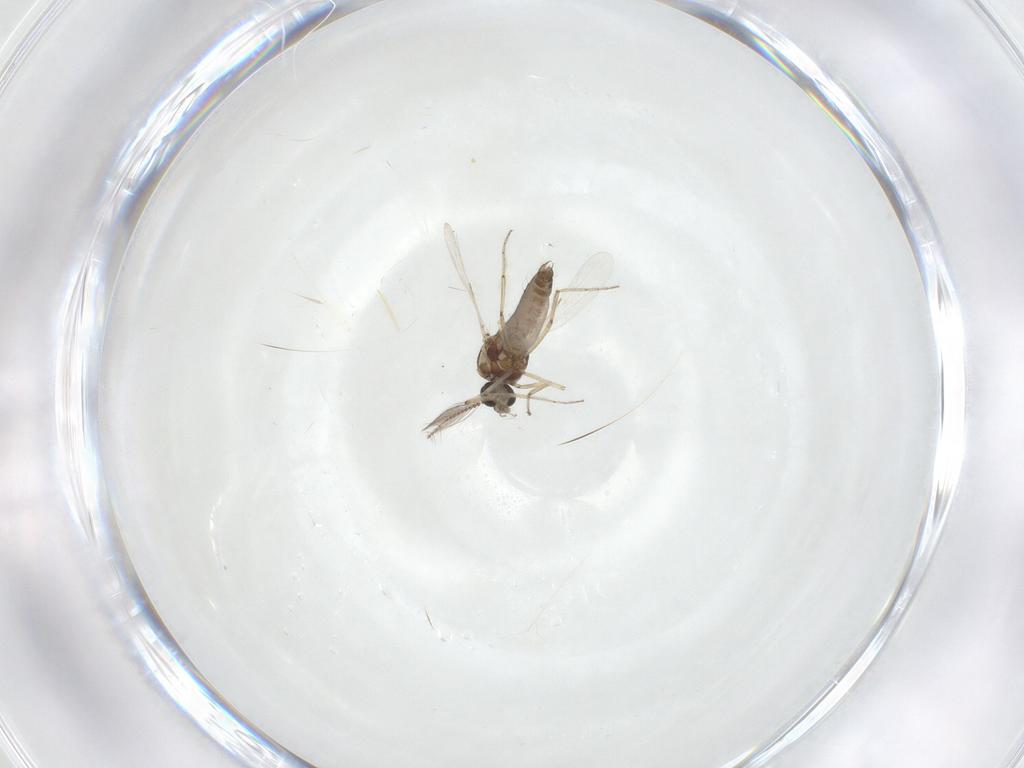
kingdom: Animalia
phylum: Arthropoda
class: Insecta
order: Diptera
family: Ceratopogonidae
